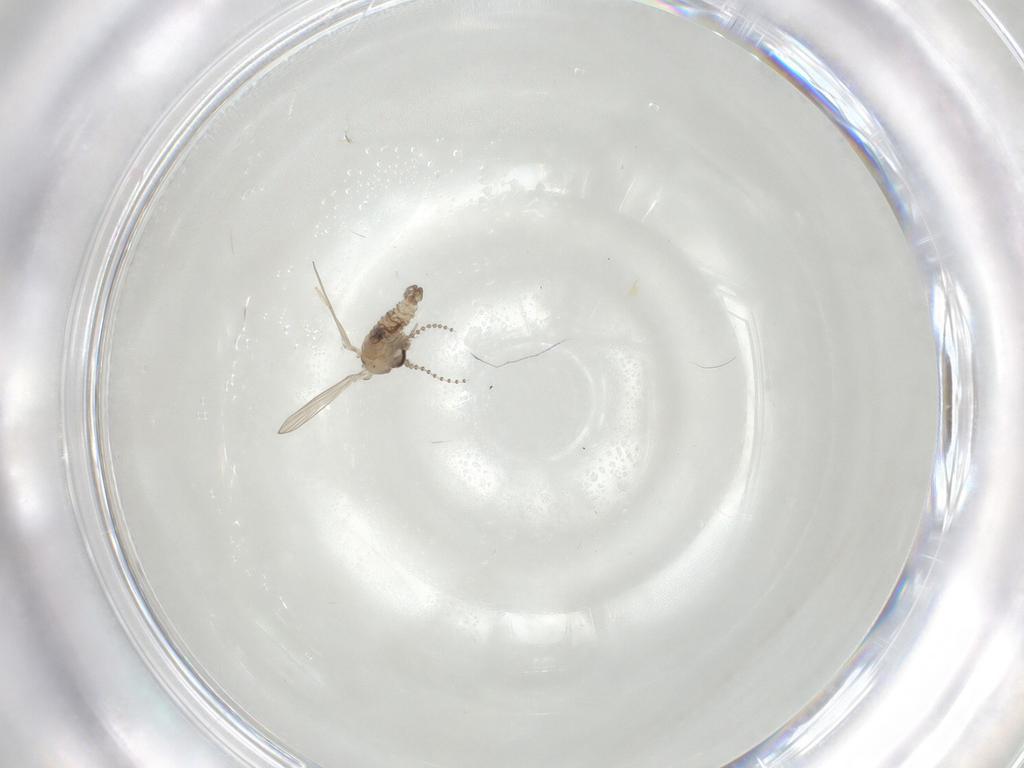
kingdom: Animalia
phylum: Arthropoda
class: Insecta
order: Diptera
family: Psychodidae
